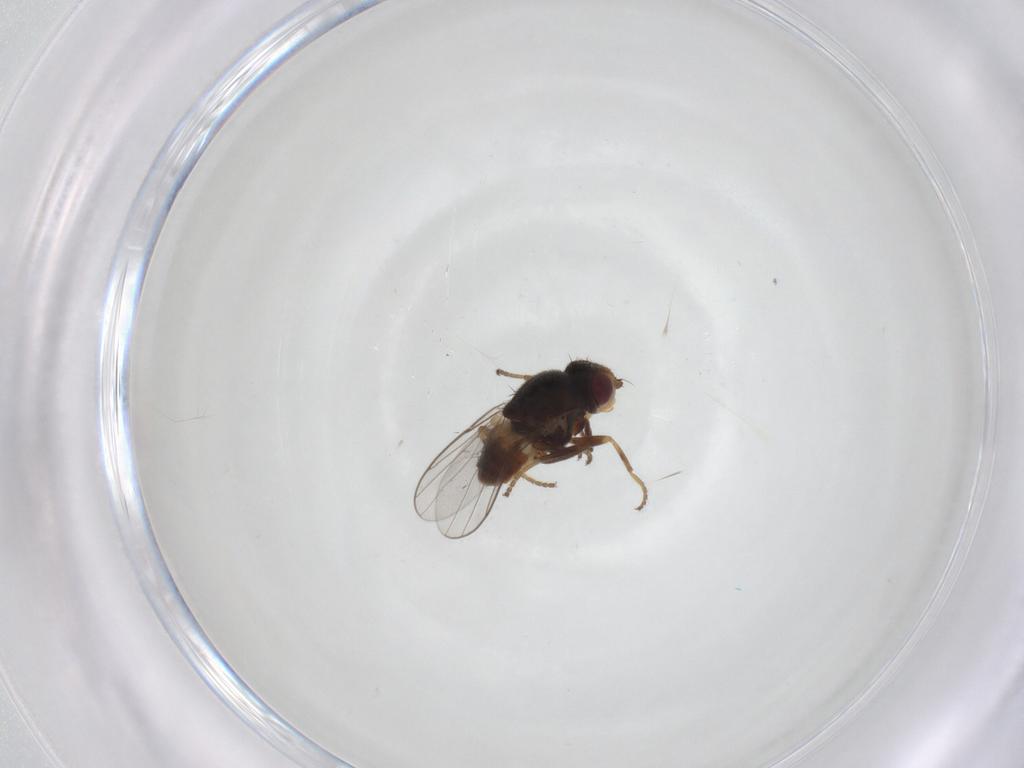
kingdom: Animalia
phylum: Arthropoda
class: Insecta
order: Diptera
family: Chloropidae
